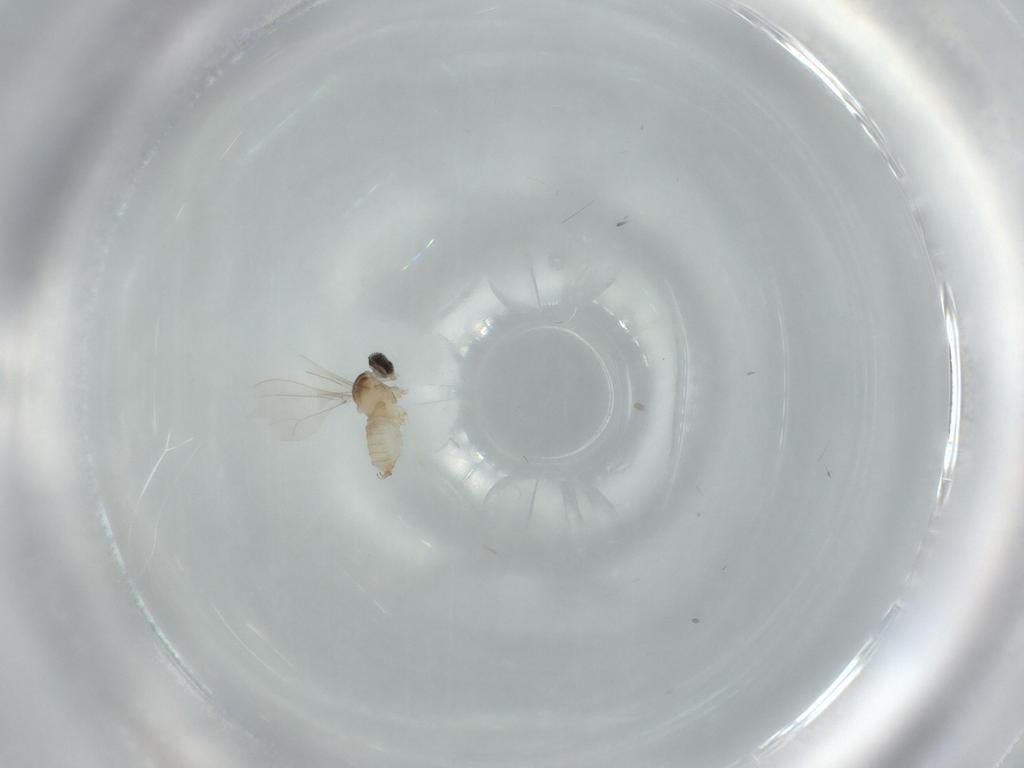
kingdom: Animalia
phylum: Arthropoda
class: Insecta
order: Diptera
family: Cecidomyiidae
